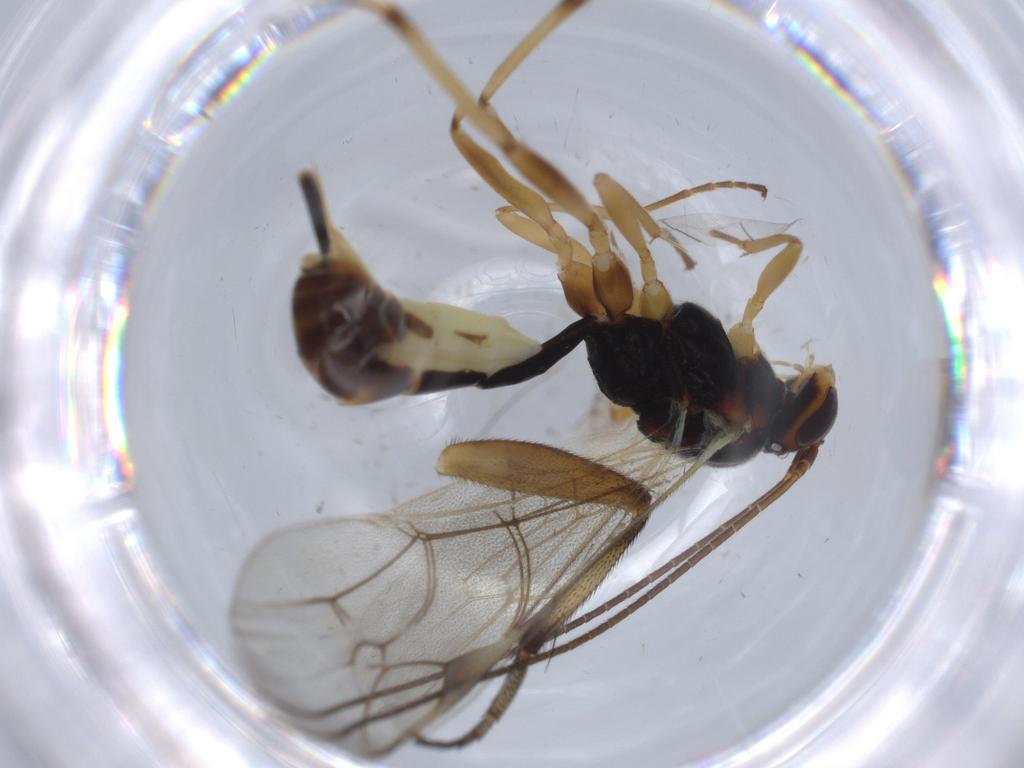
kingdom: Animalia
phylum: Arthropoda
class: Insecta
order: Hymenoptera
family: Braconidae
